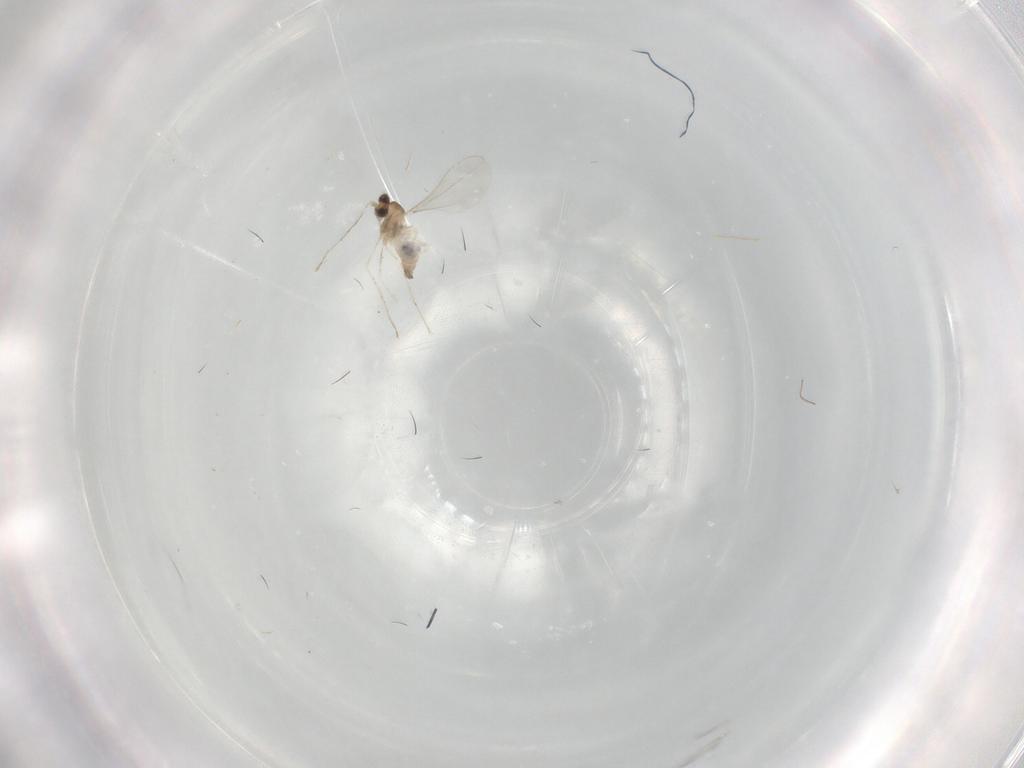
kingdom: Animalia
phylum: Arthropoda
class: Insecta
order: Diptera
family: Cecidomyiidae
